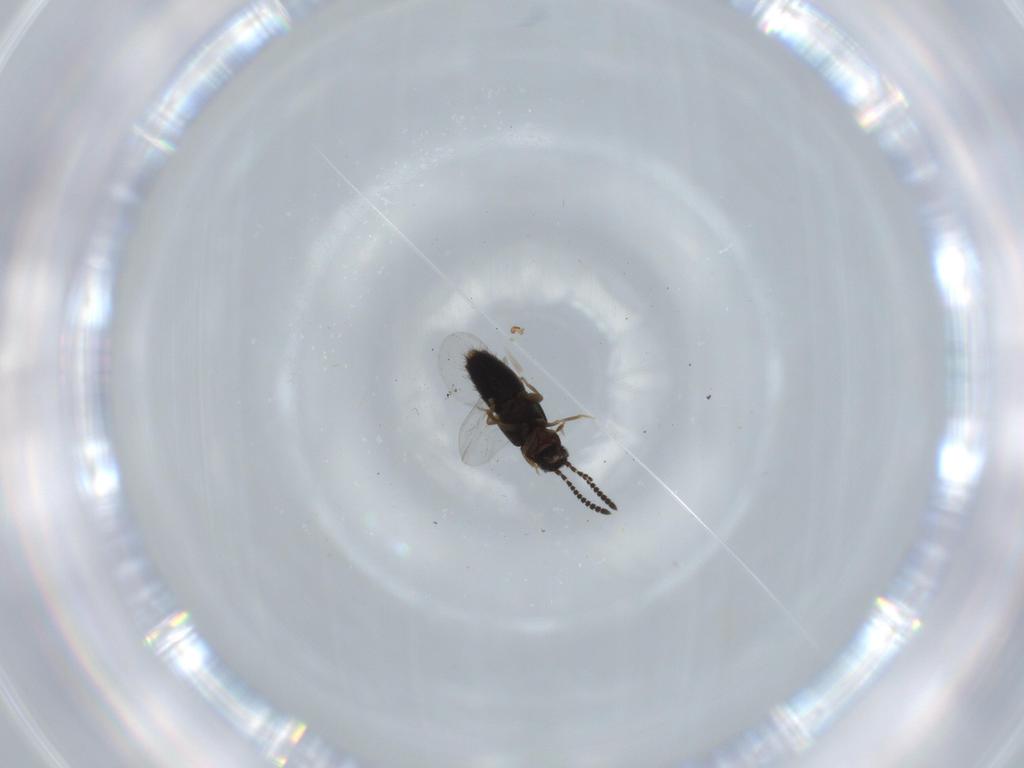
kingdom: Animalia
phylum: Arthropoda
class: Insecta
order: Coleoptera
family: Staphylinidae
